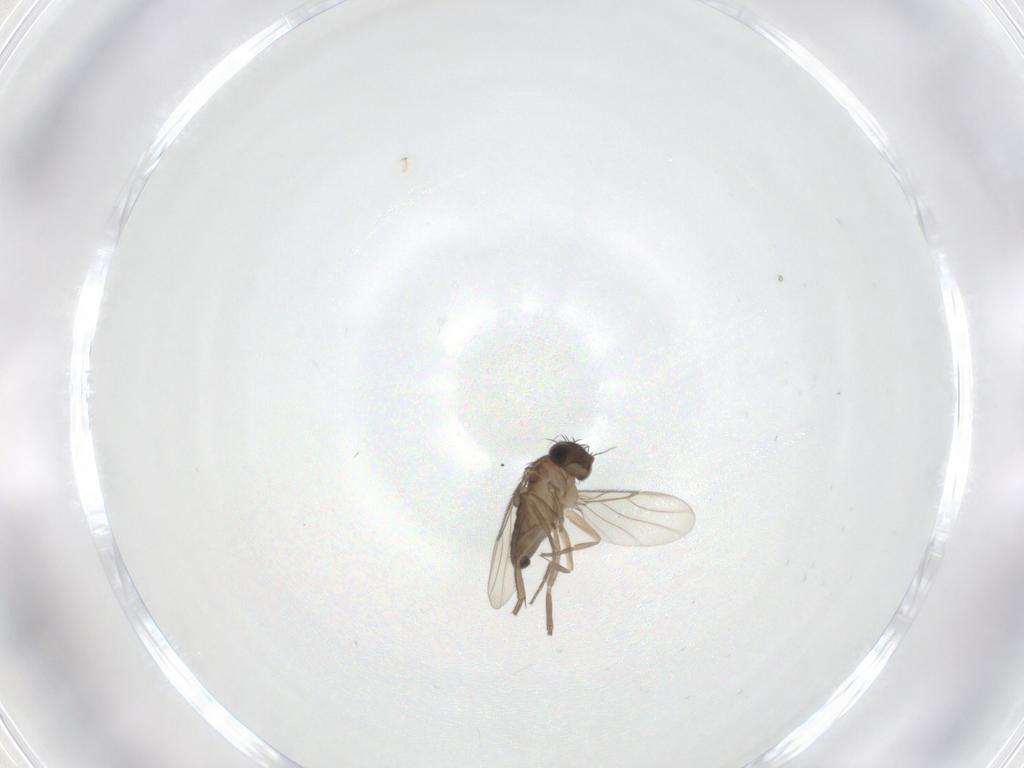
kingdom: Animalia
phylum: Arthropoda
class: Insecta
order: Diptera
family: Phoridae
